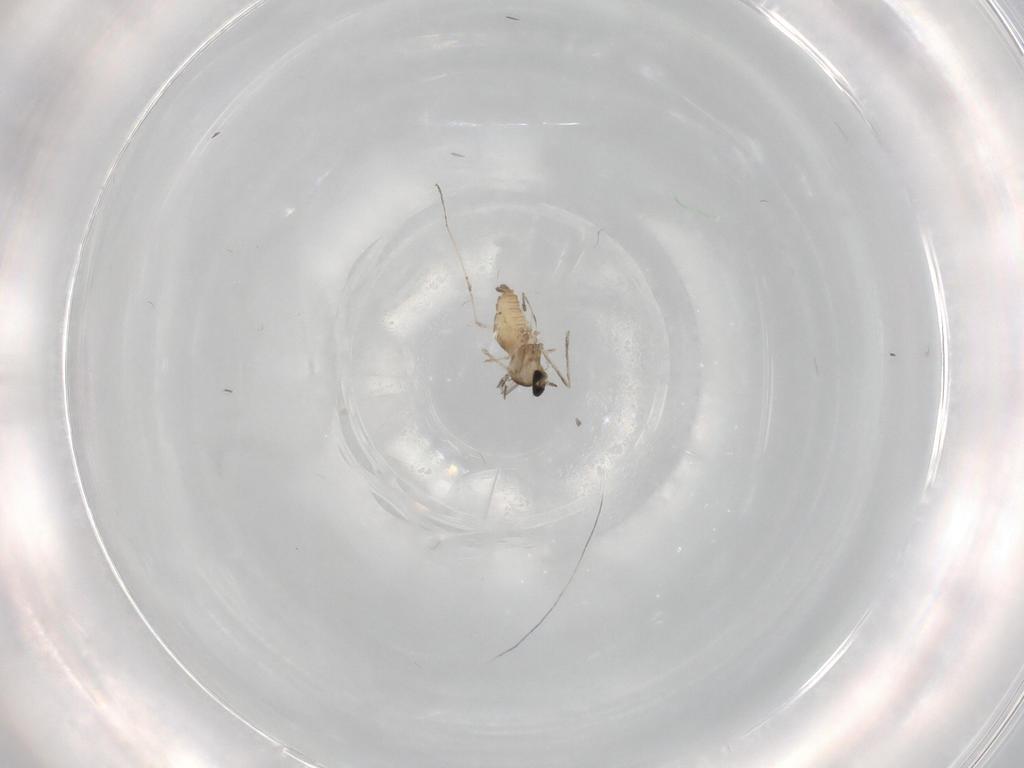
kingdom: Animalia
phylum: Arthropoda
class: Insecta
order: Diptera
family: Cecidomyiidae
